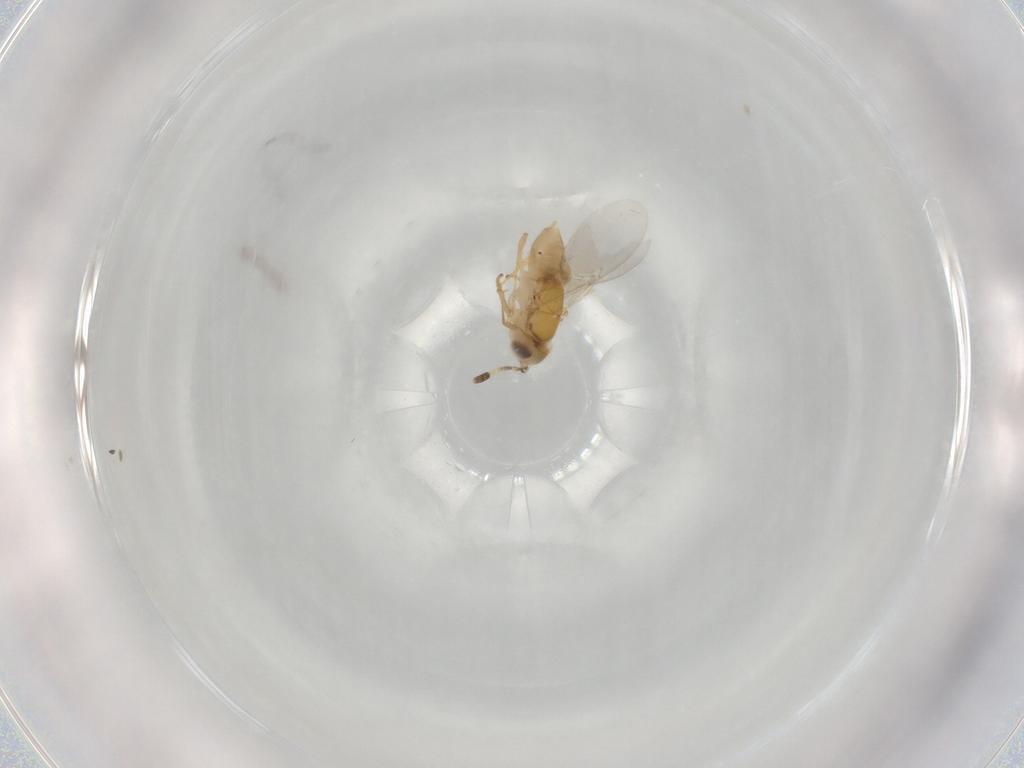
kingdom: Animalia
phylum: Arthropoda
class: Insecta
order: Hymenoptera
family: Encyrtidae
